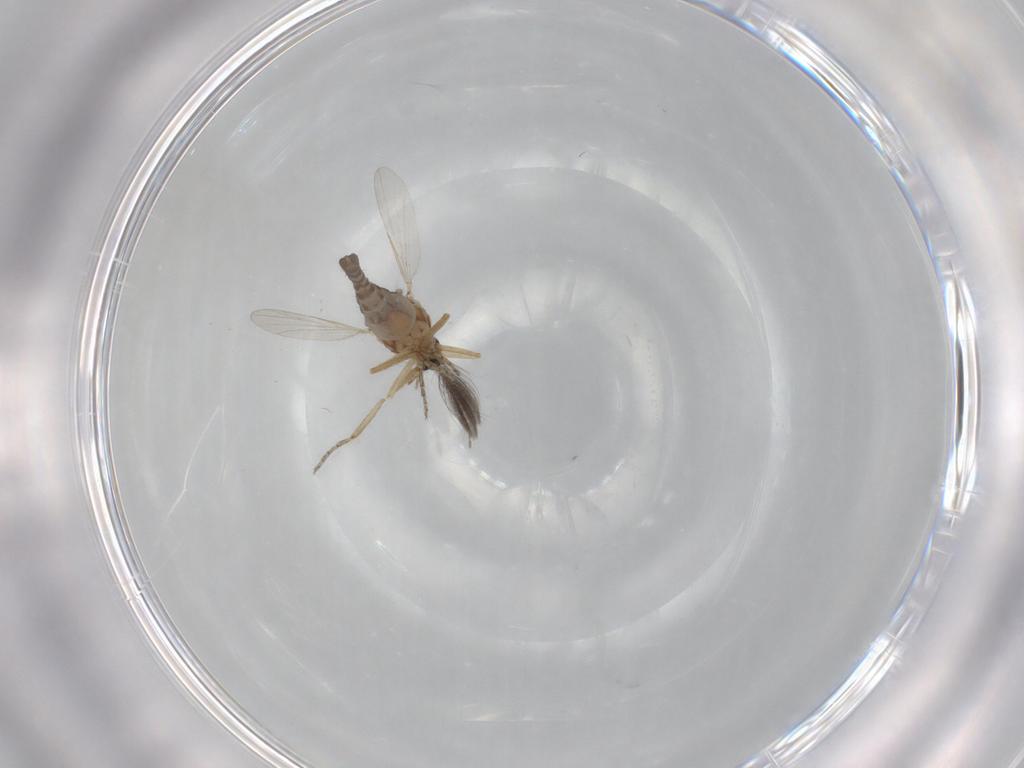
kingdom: Animalia
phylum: Arthropoda
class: Insecta
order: Diptera
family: Ceratopogonidae
